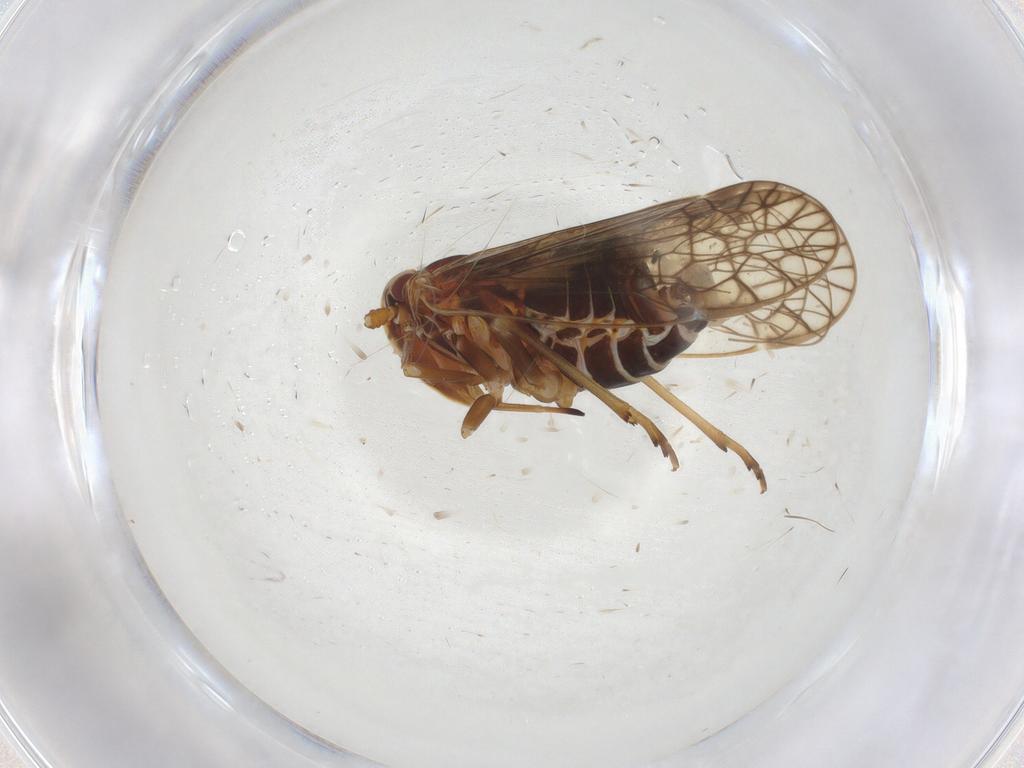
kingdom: Animalia
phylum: Arthropoda
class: Insecta
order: Hemiptera
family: Kinnaridae
